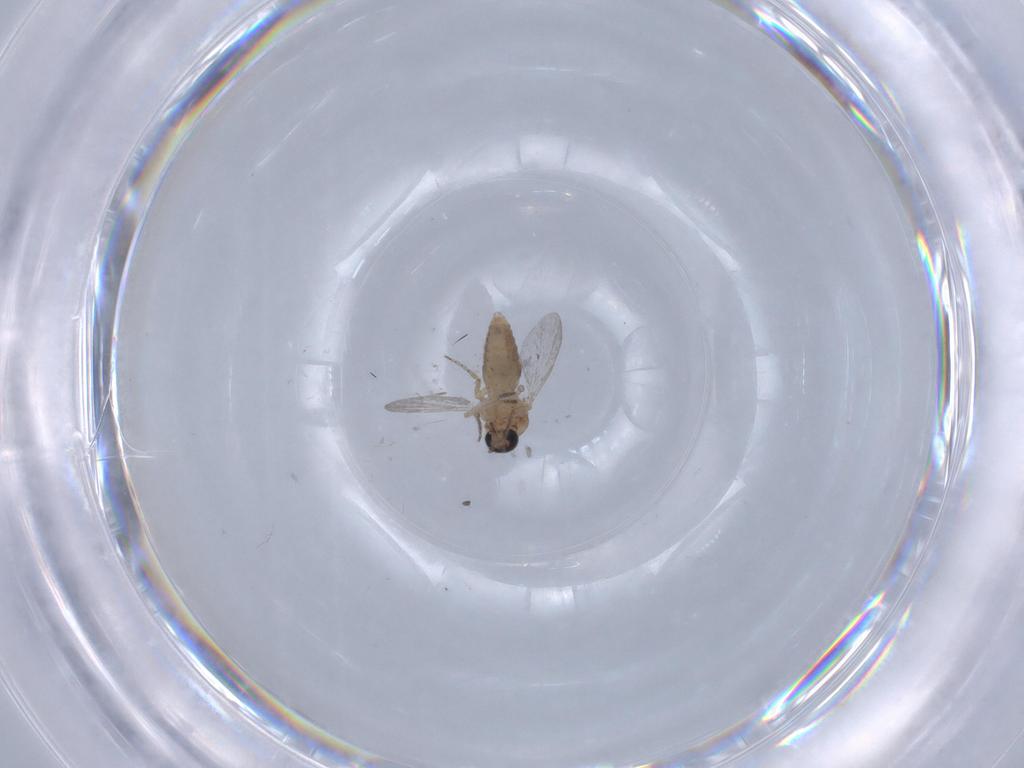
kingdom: Animalia
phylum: Arthropoda
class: Insecta
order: Diptera
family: Ceratopogonidae
